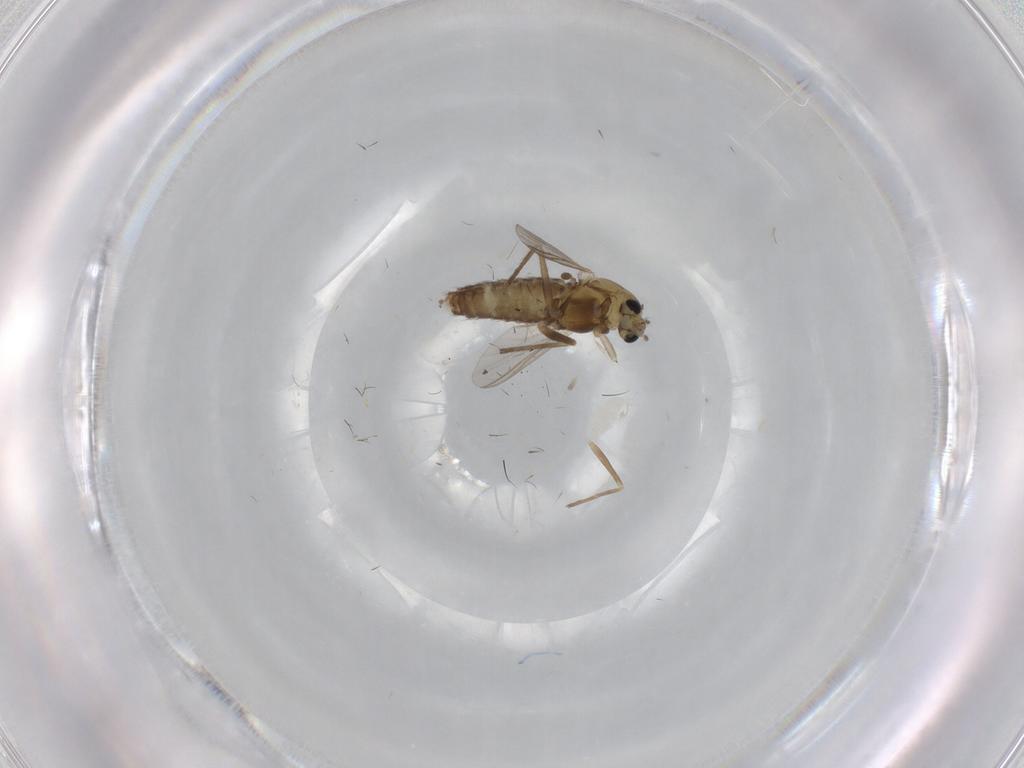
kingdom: Animalia
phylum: Arthropoda
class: Insecta
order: Diptera
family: Chironomidae
